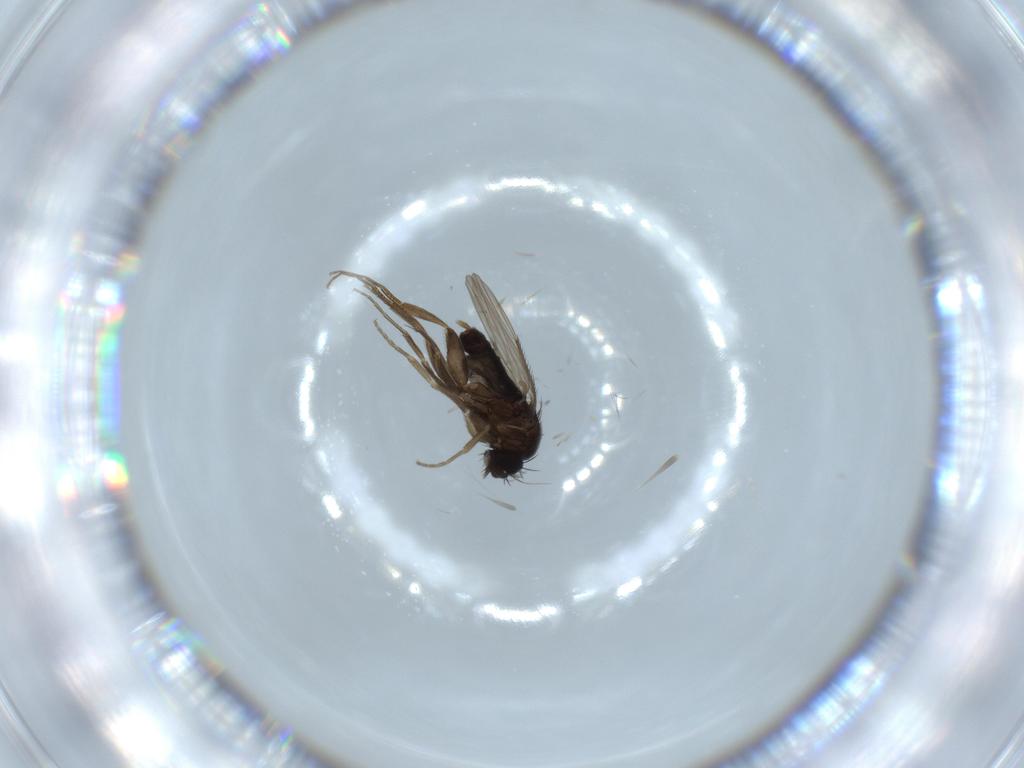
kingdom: Animalia
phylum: Arthropoda
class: Insecta
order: Diptera
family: Phoridae
